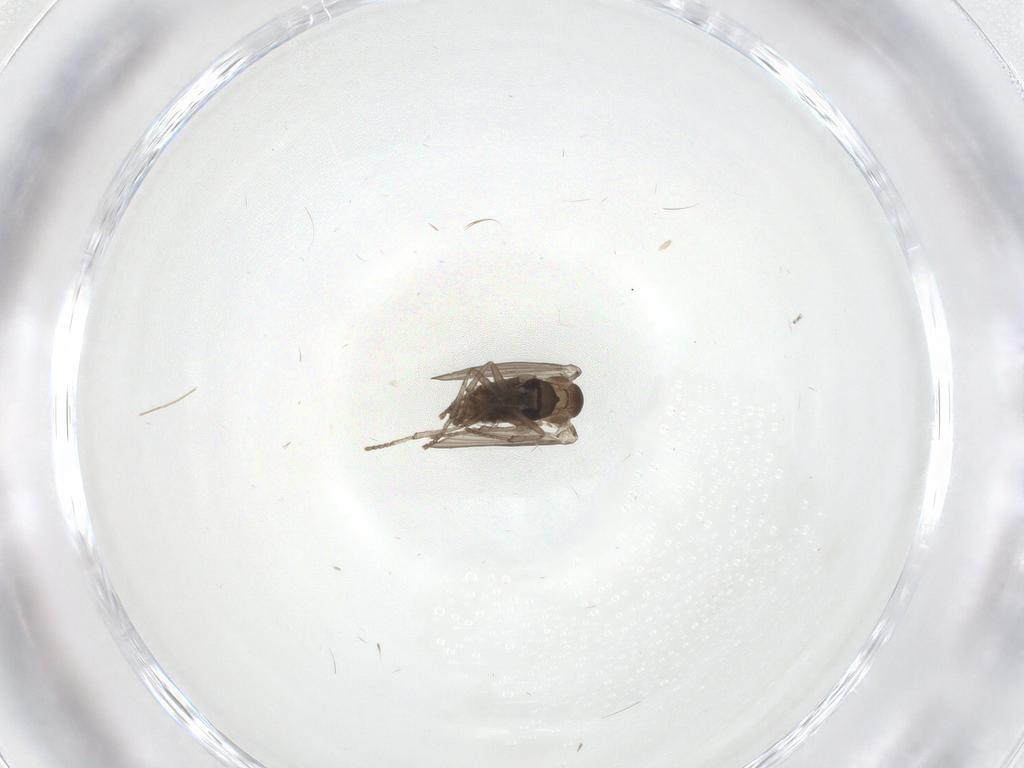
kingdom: Animalia
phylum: Arthropoda
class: Insecta
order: Diptera
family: Psychodidae
